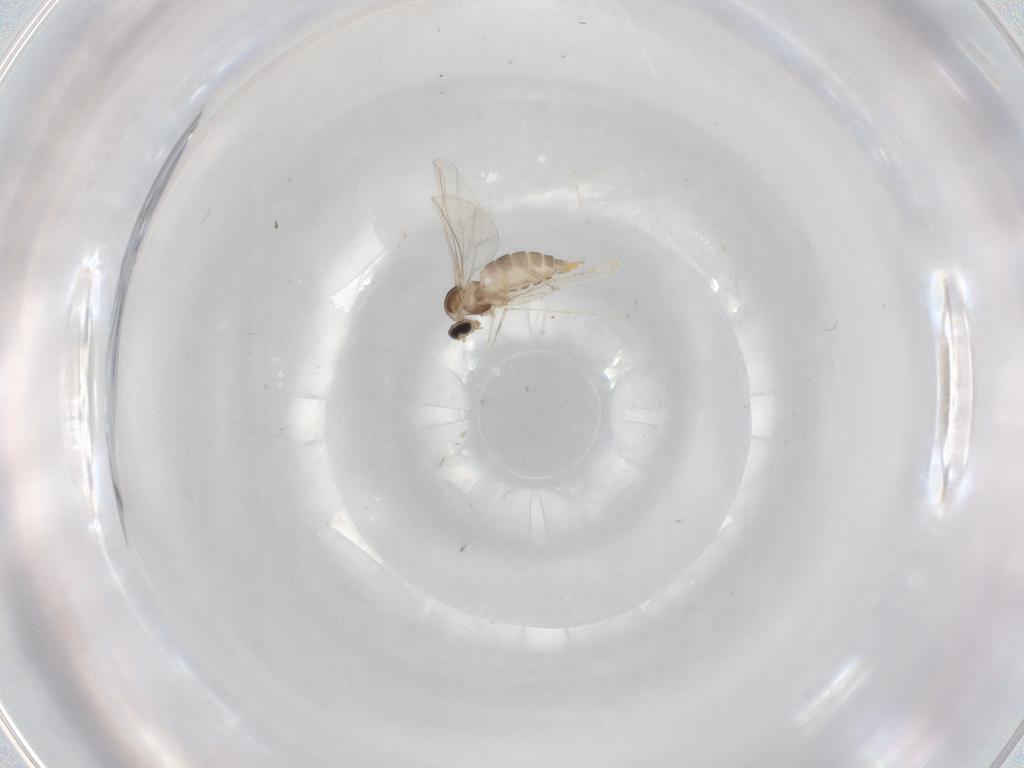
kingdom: Animalia
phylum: Arthropoda
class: Insecta
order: Diptera
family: Cecidomyiidae
